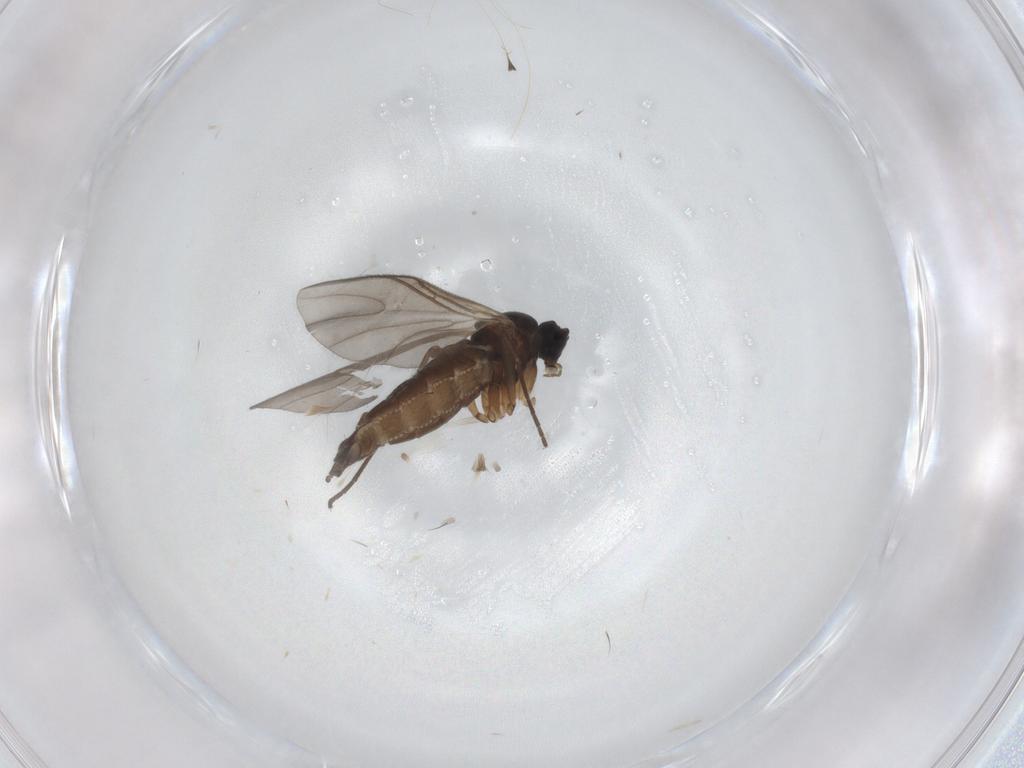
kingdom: Animalia
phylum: Arthropoda
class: Insecta
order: Diptera
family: Sciaridae
